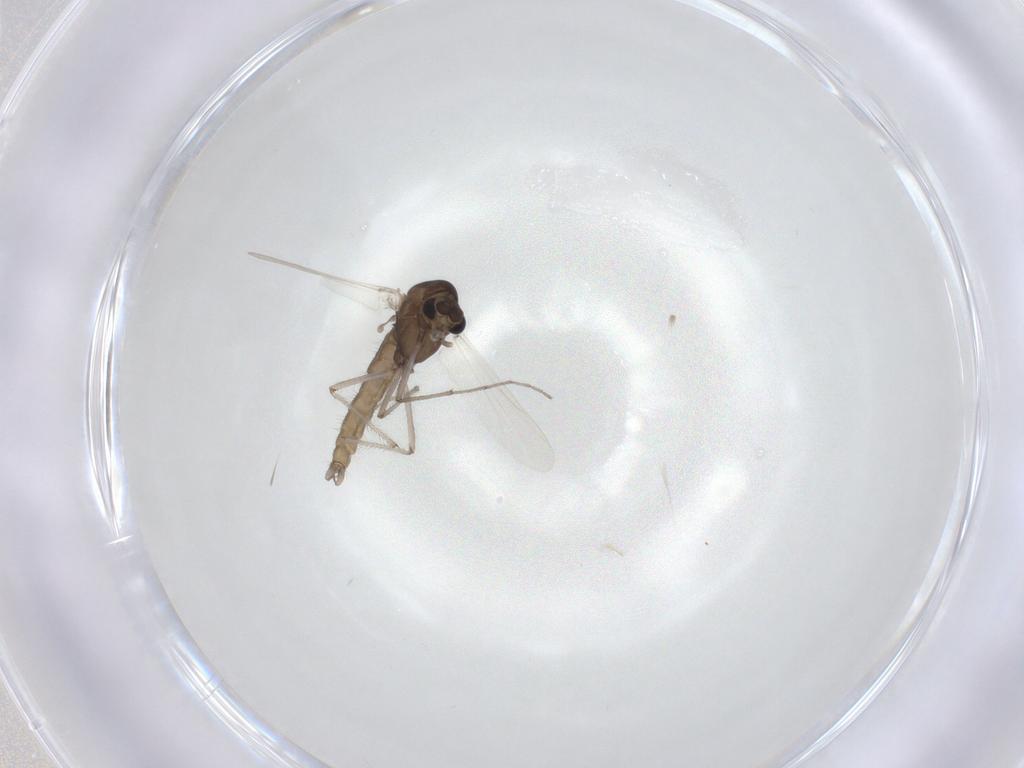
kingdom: Animalia
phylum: Arthropoda
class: Insecta
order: Diptera
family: Chironomidae
